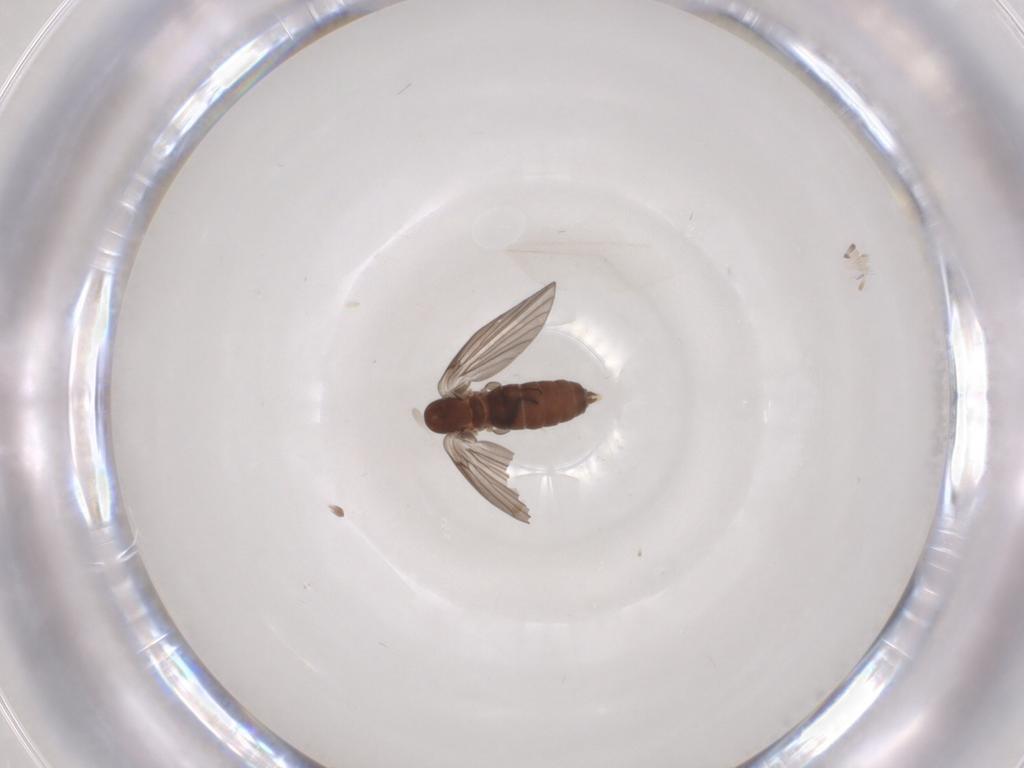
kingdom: Animalia
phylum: Arthropoda
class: Insecta
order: Diptera
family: Psychodidae
